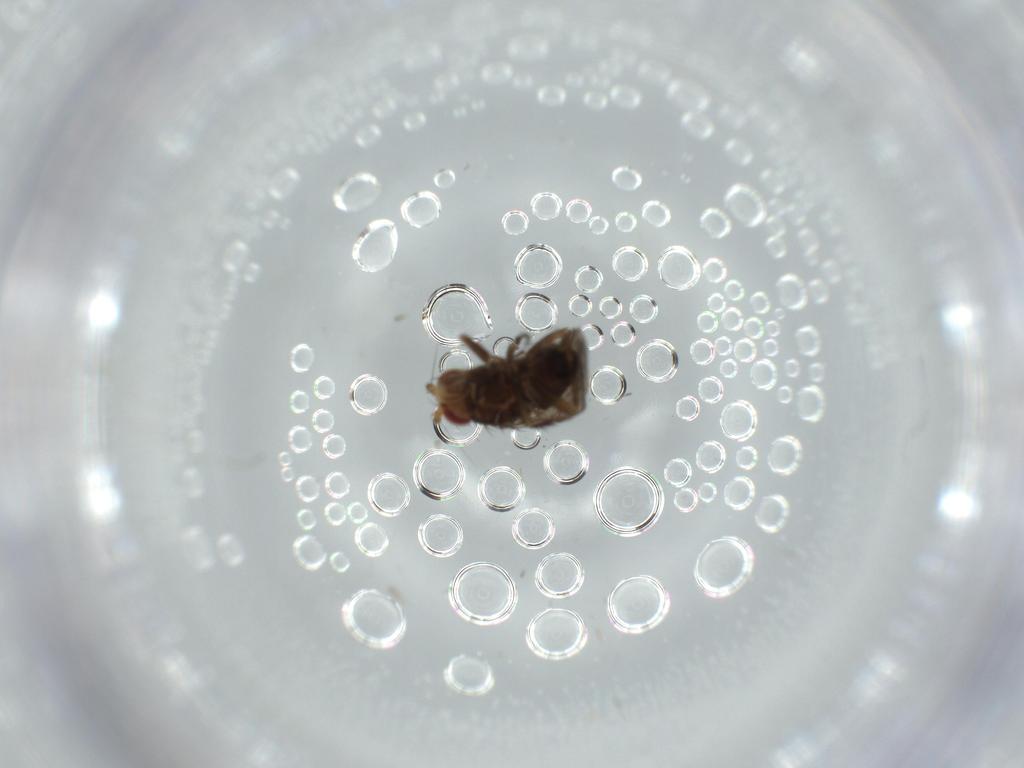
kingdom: Animalia
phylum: Arthropoda
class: Insecta
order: Diptera
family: Sphaeroceridae
